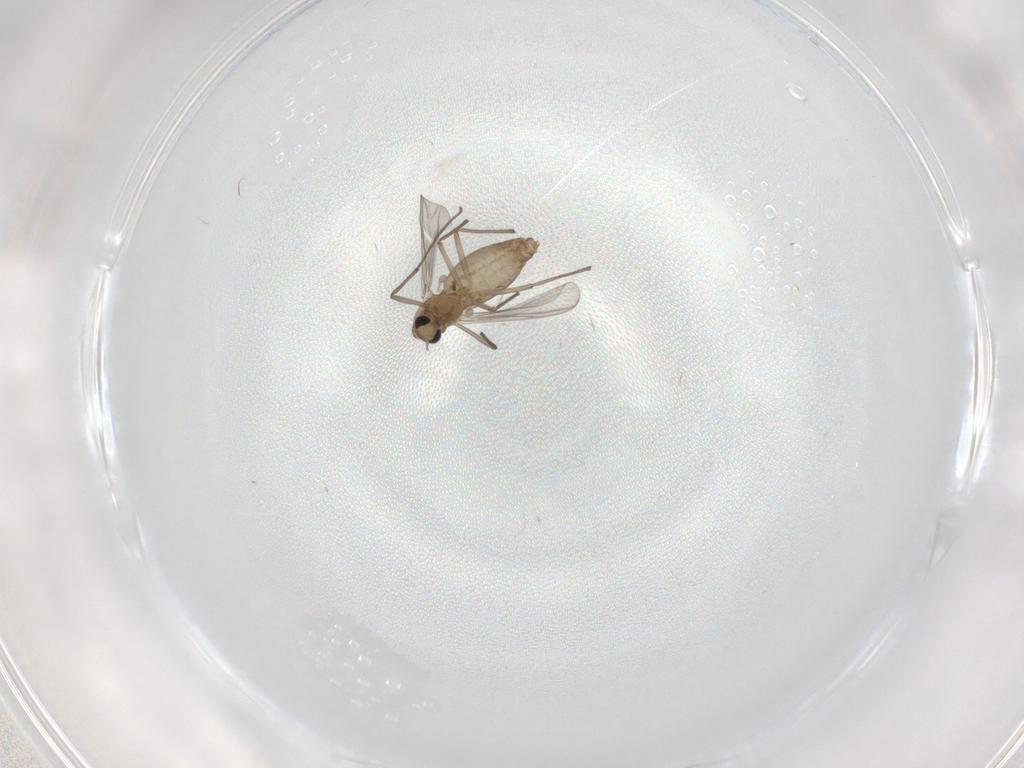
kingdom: Animalia
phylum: Arthropoda
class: Insecta
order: Diptera
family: Chironomidae
